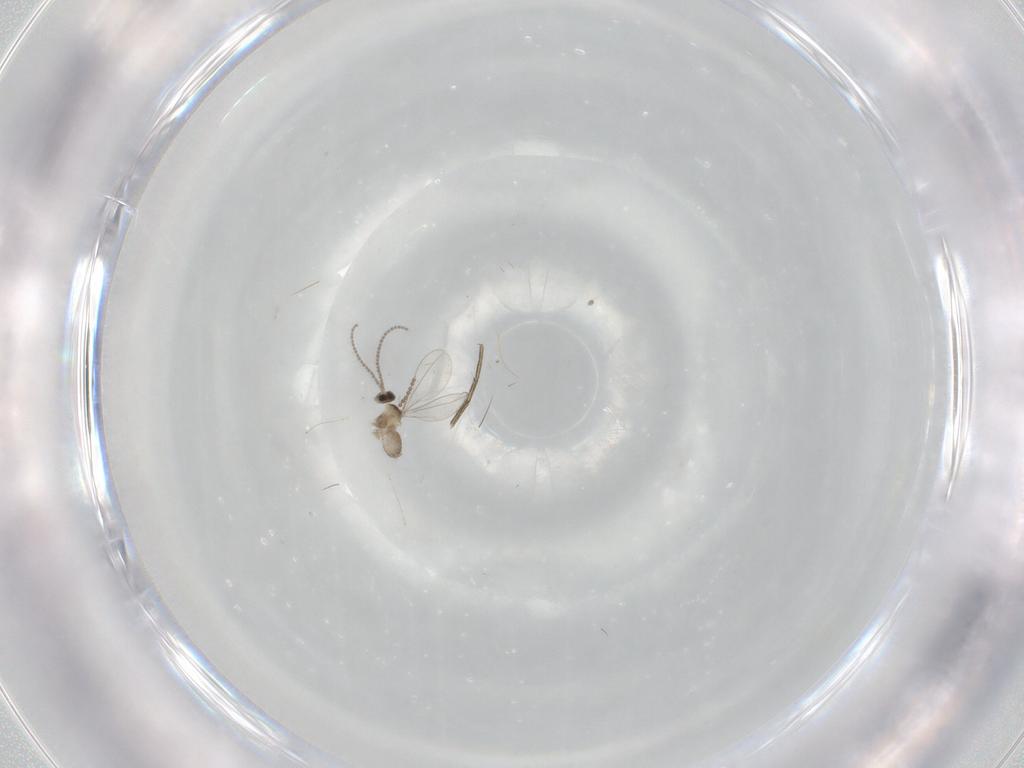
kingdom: Animalia
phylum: Arthropoda
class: Insecta
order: Diptera
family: Cecidomyiidae
